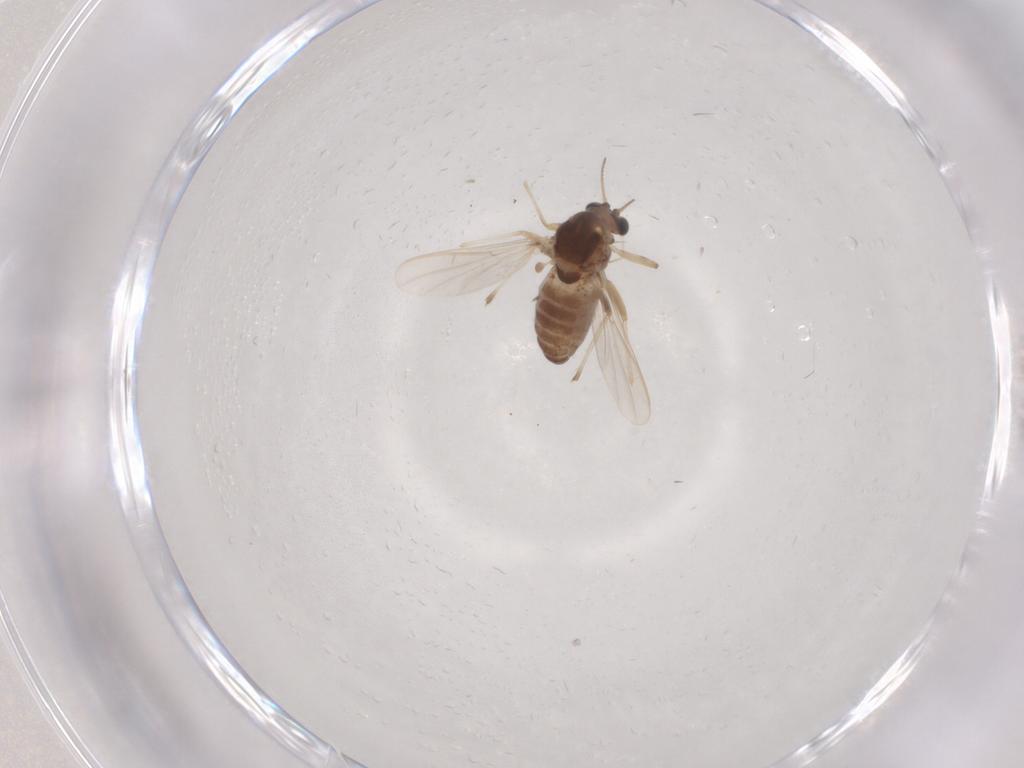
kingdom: Animalia
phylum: Arthropoda
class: Insecta
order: Diptera
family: Chironomidae
